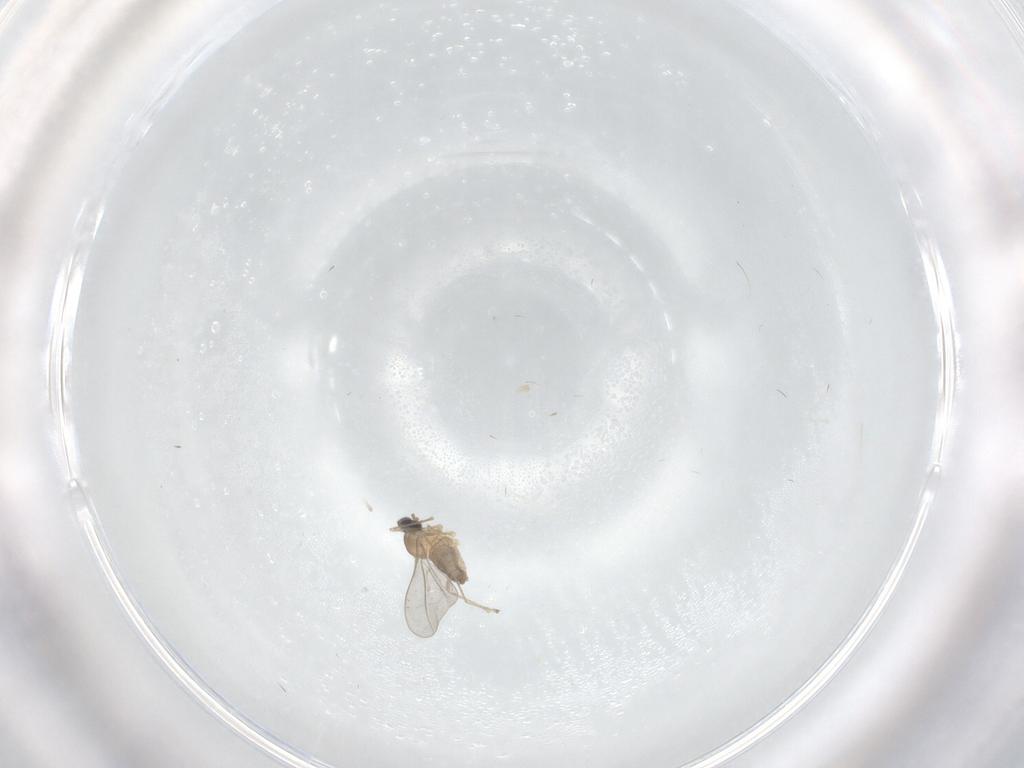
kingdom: Animalia
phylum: Arthropoda
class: Insecta
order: Diptera
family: Cecidomyiidae
